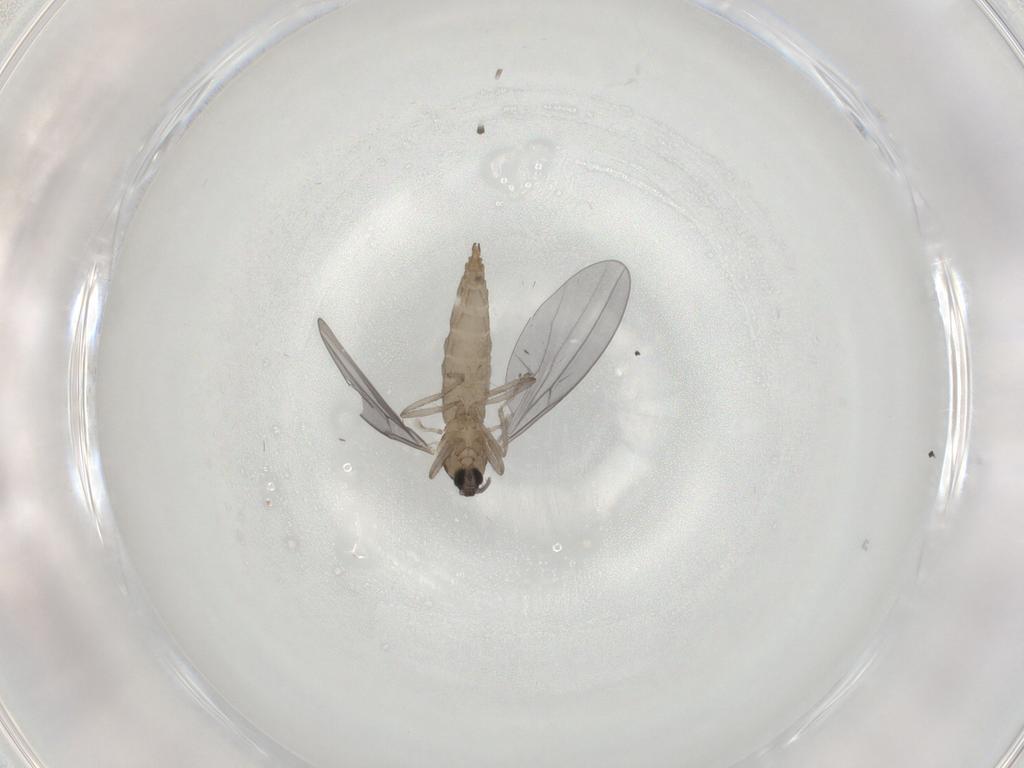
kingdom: Animalia
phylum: Arthropoda
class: Insecta
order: Diptera
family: Cecidomyiidae
